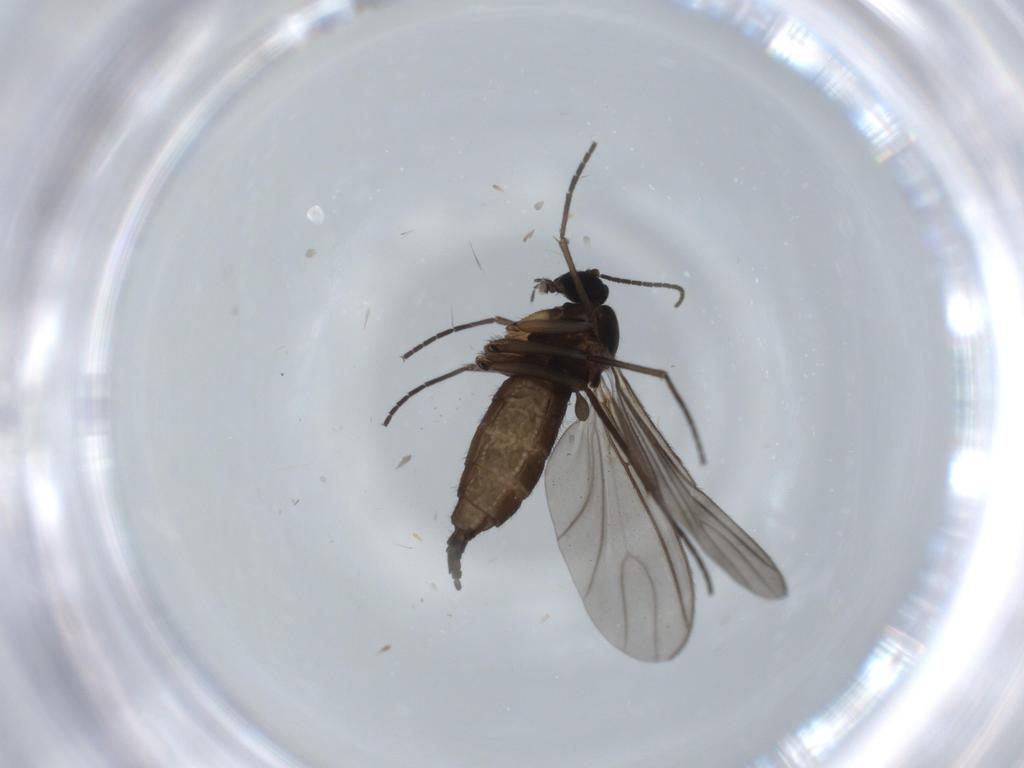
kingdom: Animalia
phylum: Arthropoda
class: Insecta
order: Diptera
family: Sciaridae
